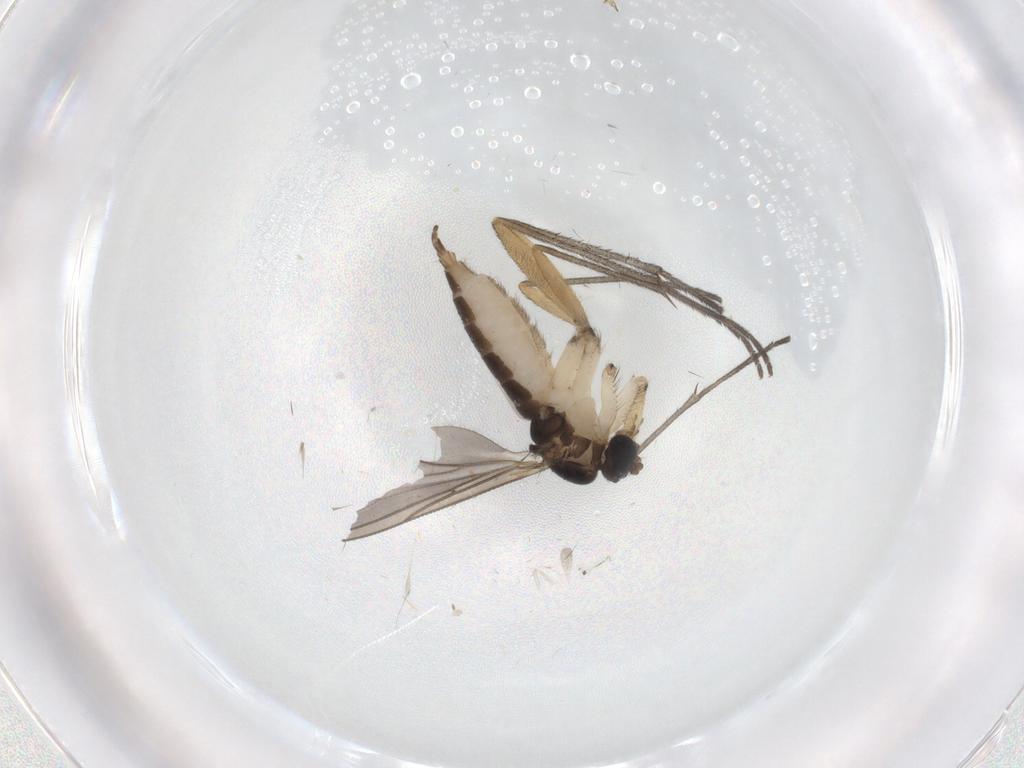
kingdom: Animalia
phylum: Arthropoda
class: Insecta
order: Diptera
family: Cecidomyiidae
